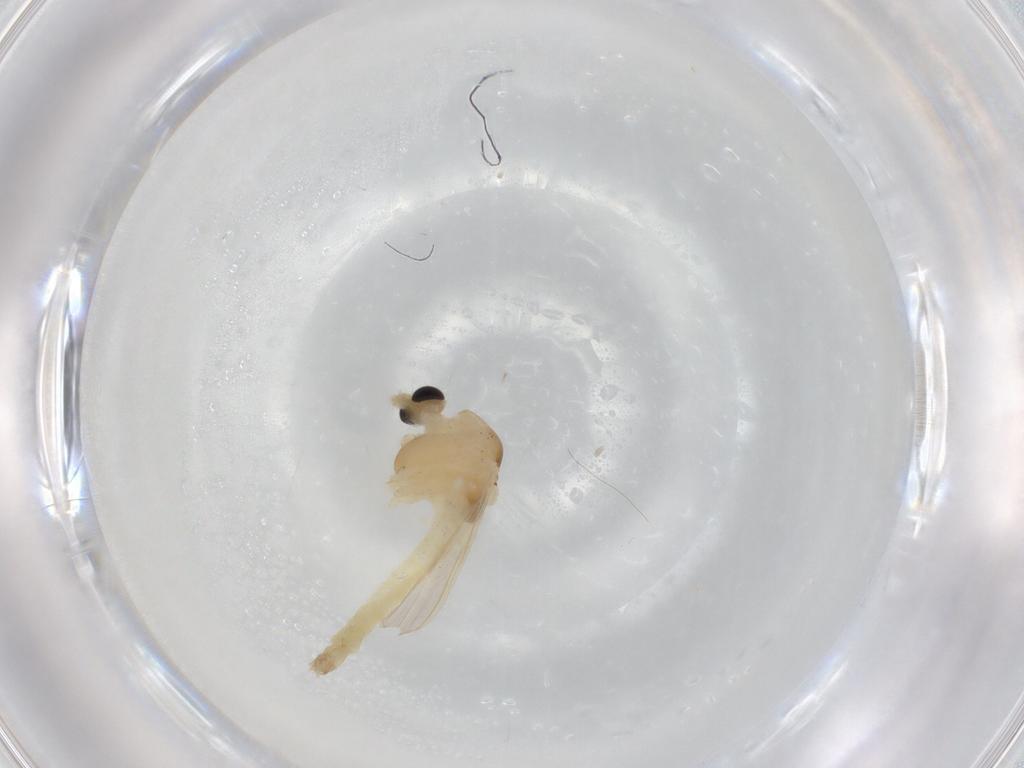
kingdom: Animalia
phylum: Arthropoda
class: Insecta
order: Diptera
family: Chironomidae
